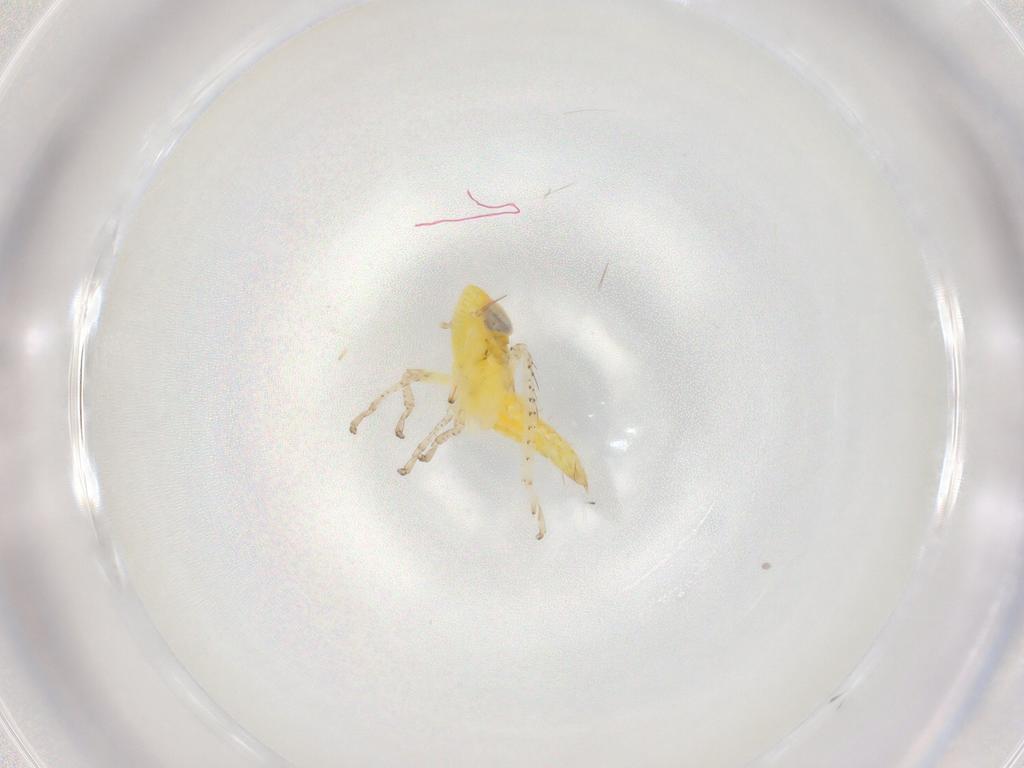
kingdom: Animalia
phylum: Arthropoda
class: Insecta
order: Hemiptera
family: Cicadellidae
